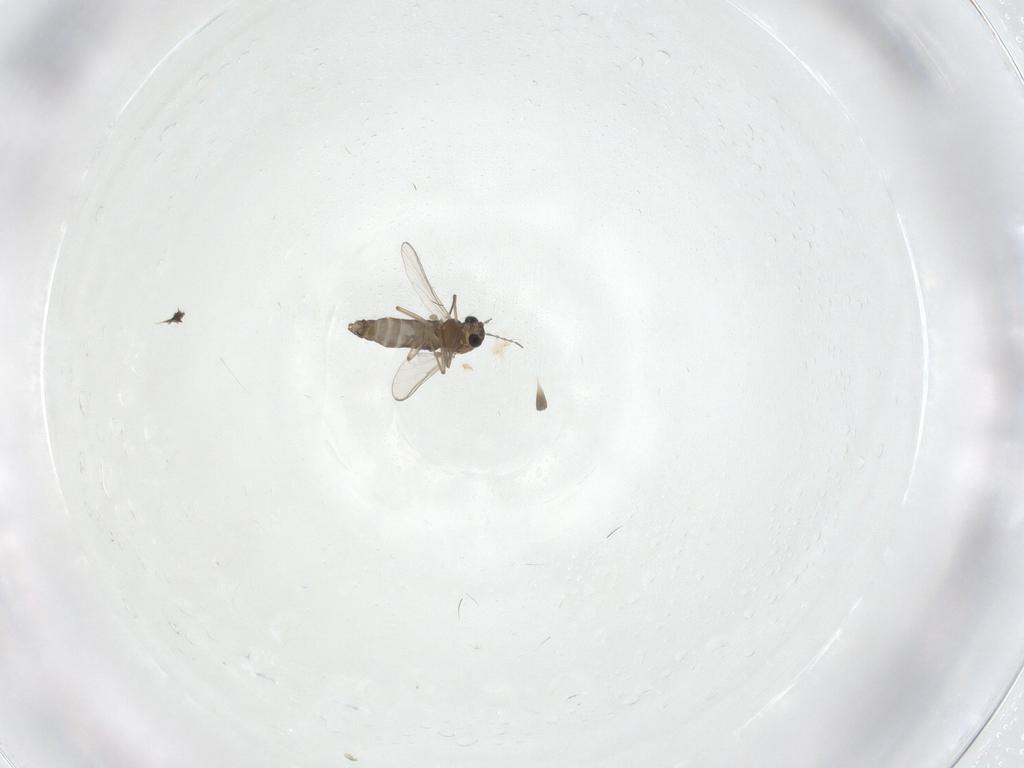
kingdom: Animalia
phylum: Arthropoda
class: Insecta
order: Diptera
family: Chironomidae
